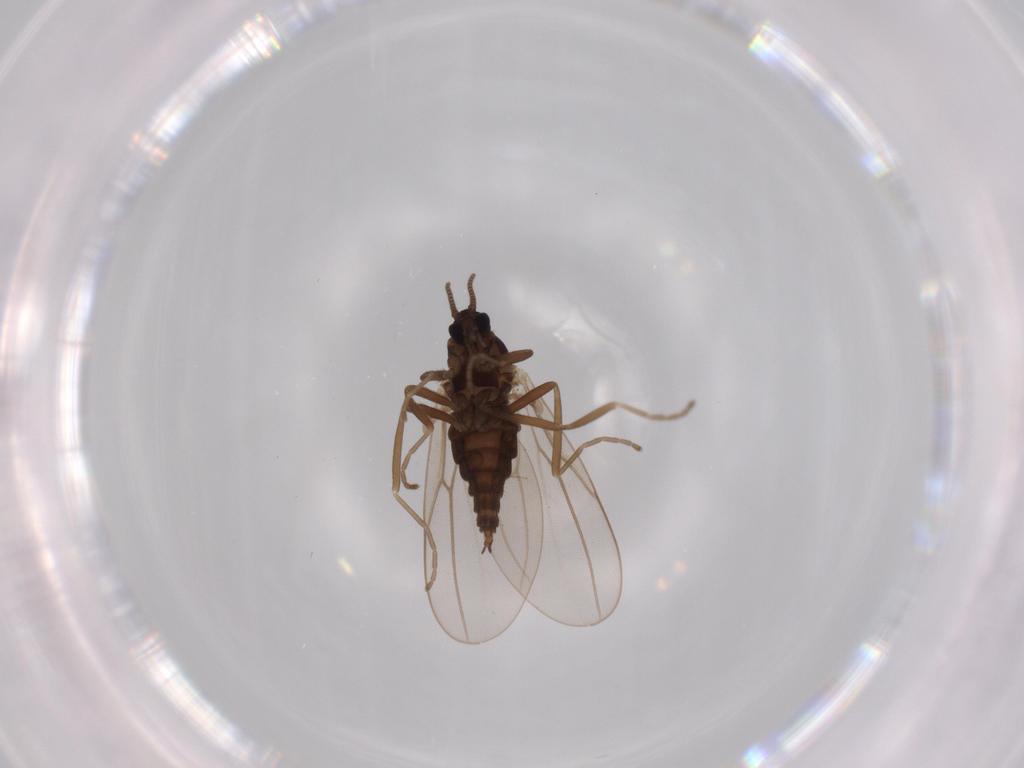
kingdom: Animalia
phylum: Arthropoda
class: Insecta
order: Diptera
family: Cecidomyiidae
